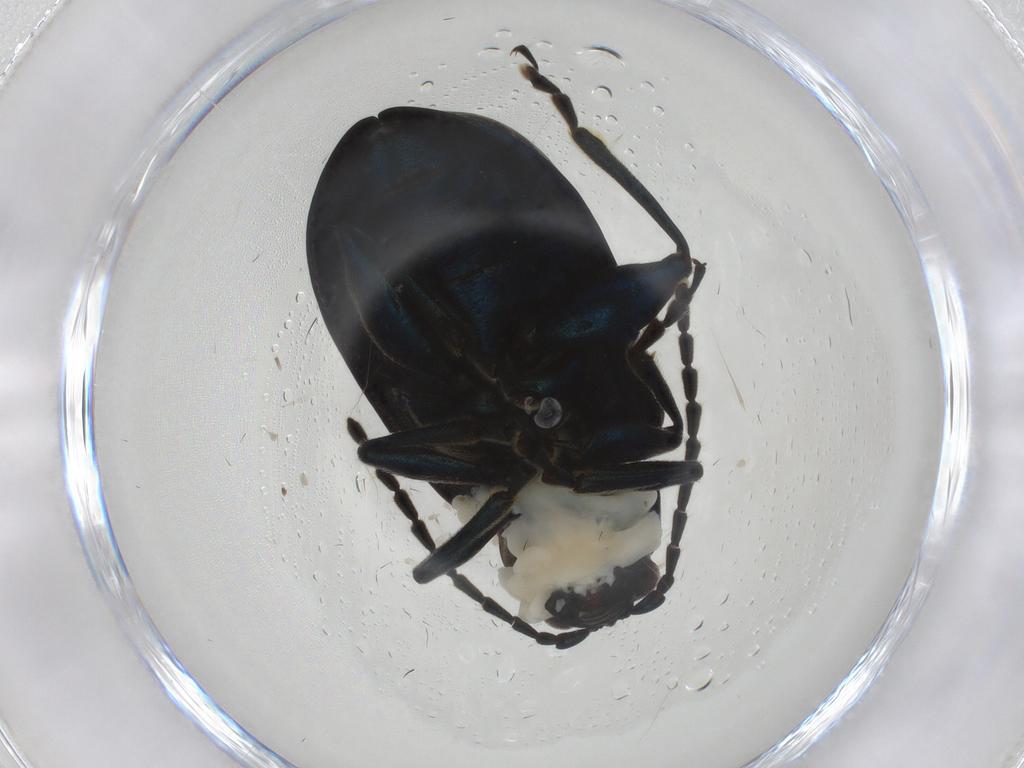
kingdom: Animalia
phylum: Arthropoda
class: Insecta
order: Coleoptera
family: Chrysomelidae
